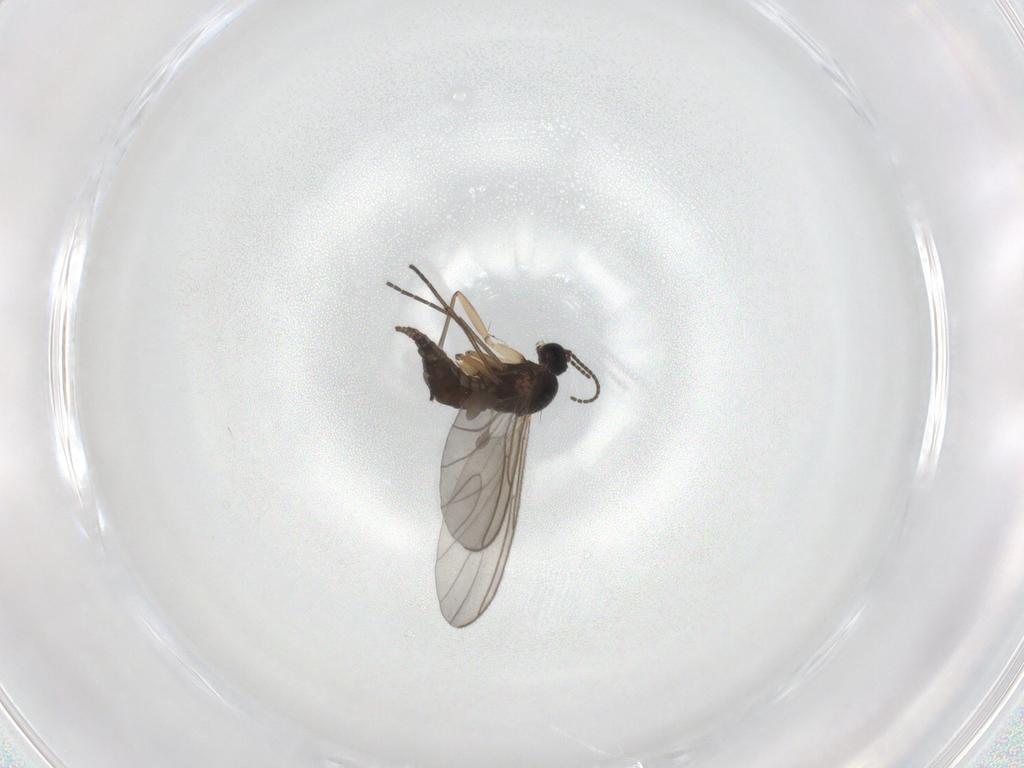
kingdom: Animalia
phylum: Arthropoda
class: Insecta
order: Diptera
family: Sciaridae
